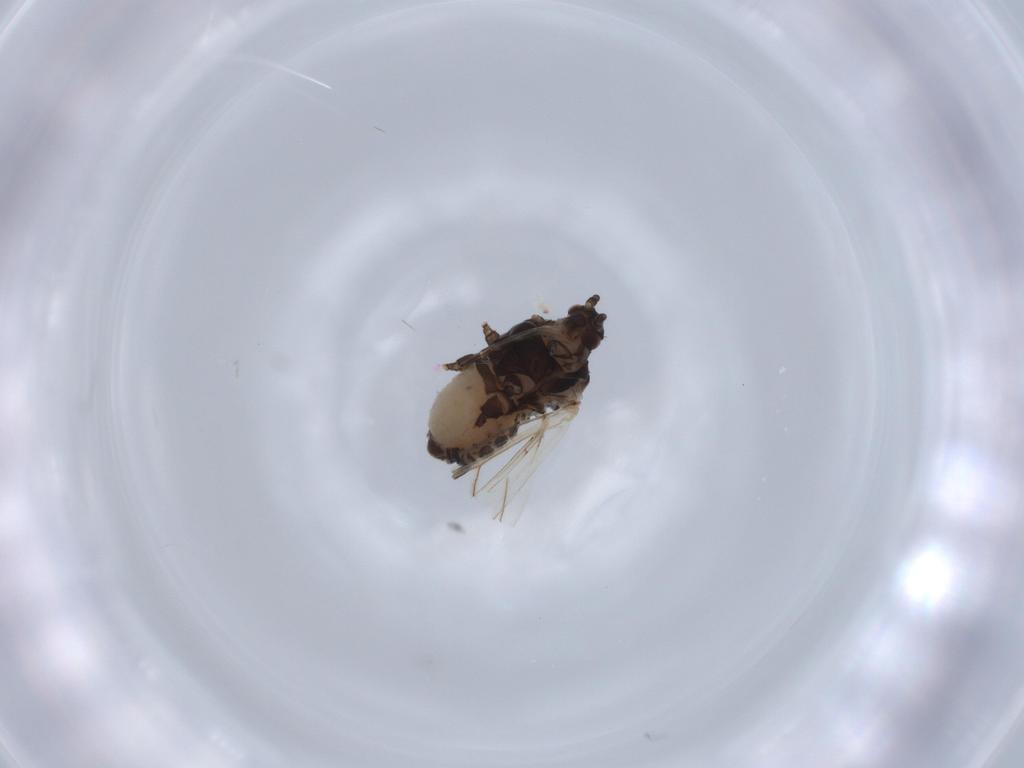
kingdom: Animalia
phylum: Arthropoda
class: Insecta
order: Hemiptera
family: Aphididae
